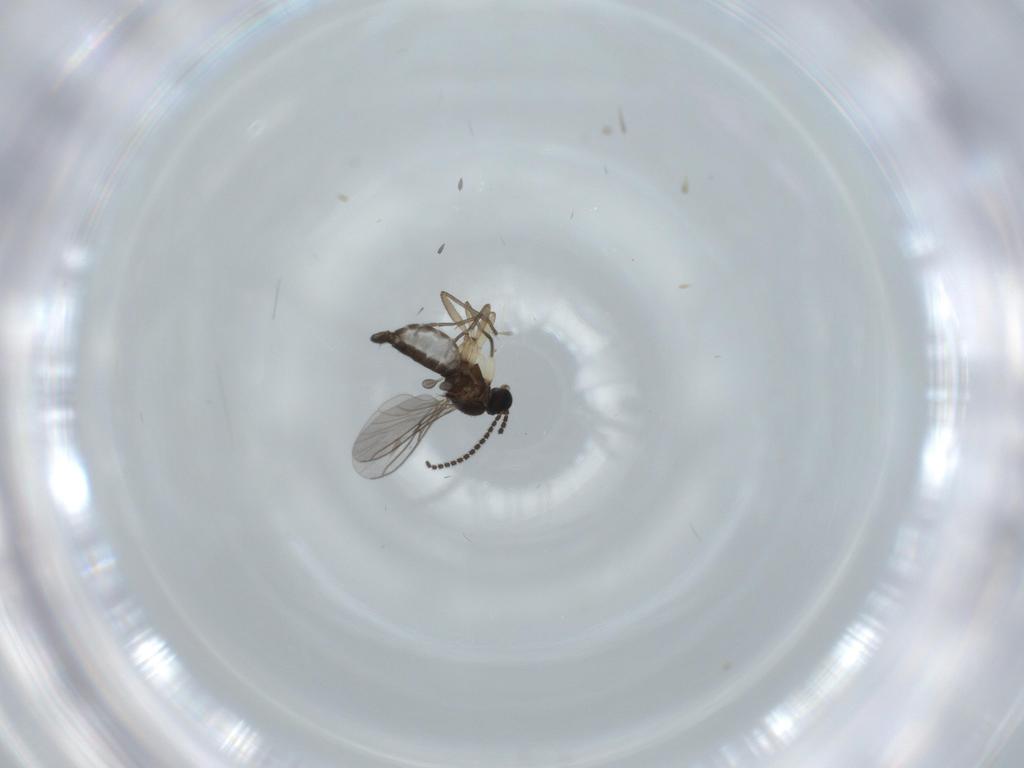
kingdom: Animalia
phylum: Arthropoda
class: Insecta
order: Diptera
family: Sciaridae
